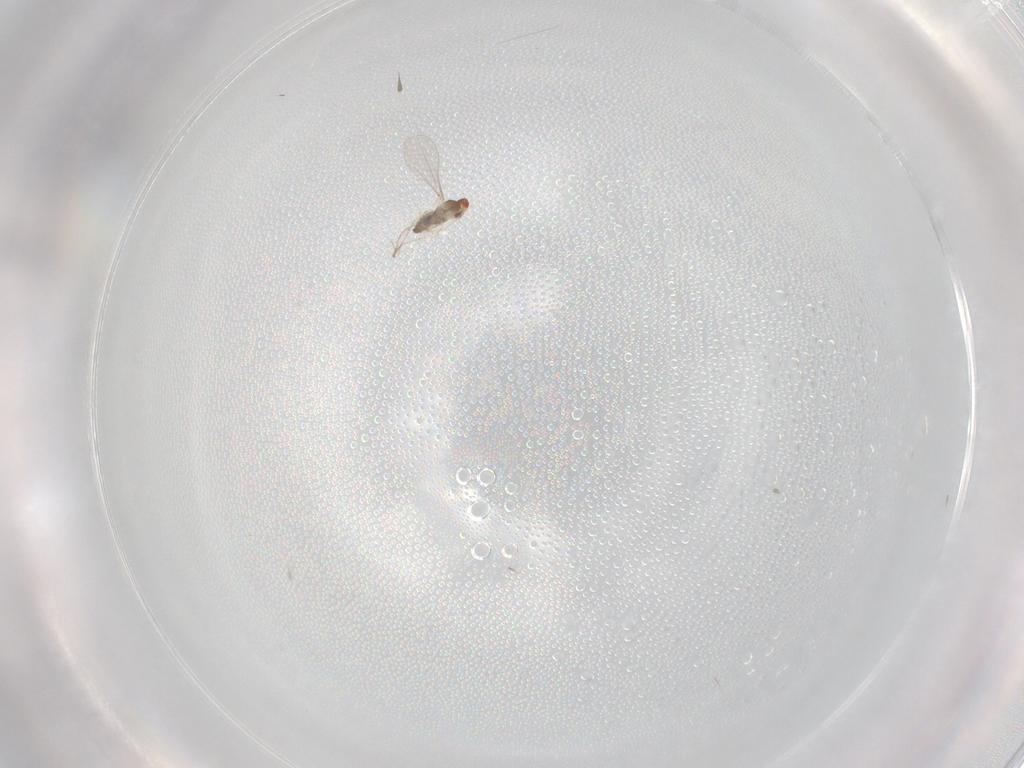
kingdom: Animalia
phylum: Arthropoda
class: Insecta
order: Diptera
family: Cecidomyiidae
